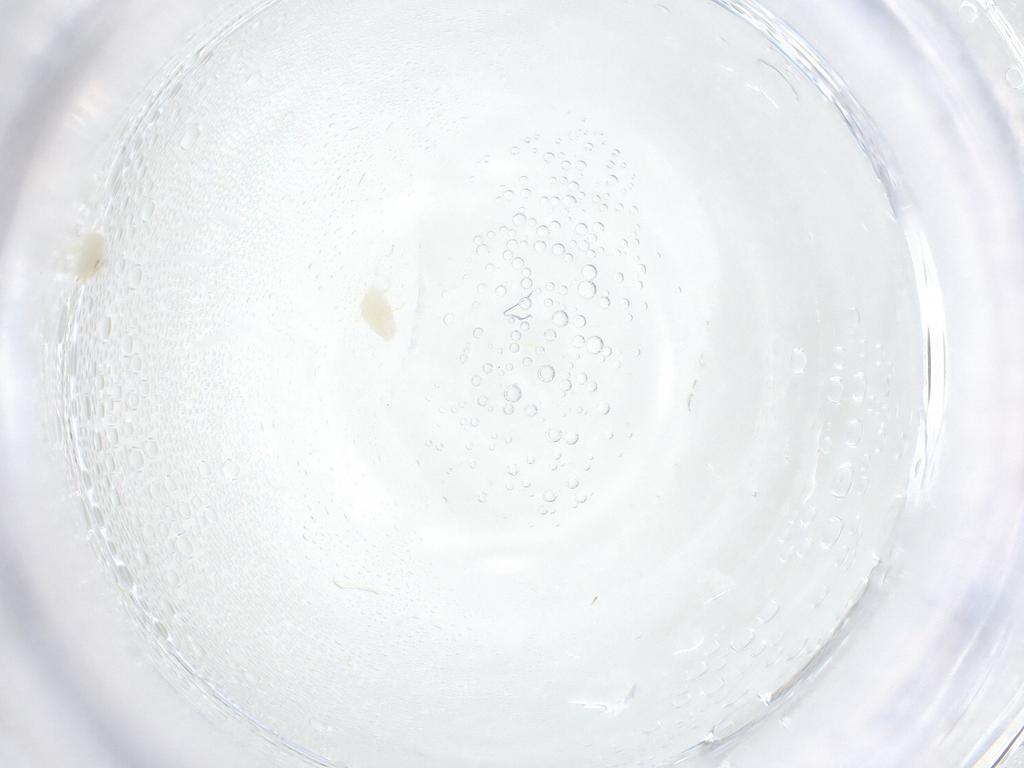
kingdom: Animalia
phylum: Arthropoda
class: Insecta
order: Hemiptera
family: Aleyrodidae
